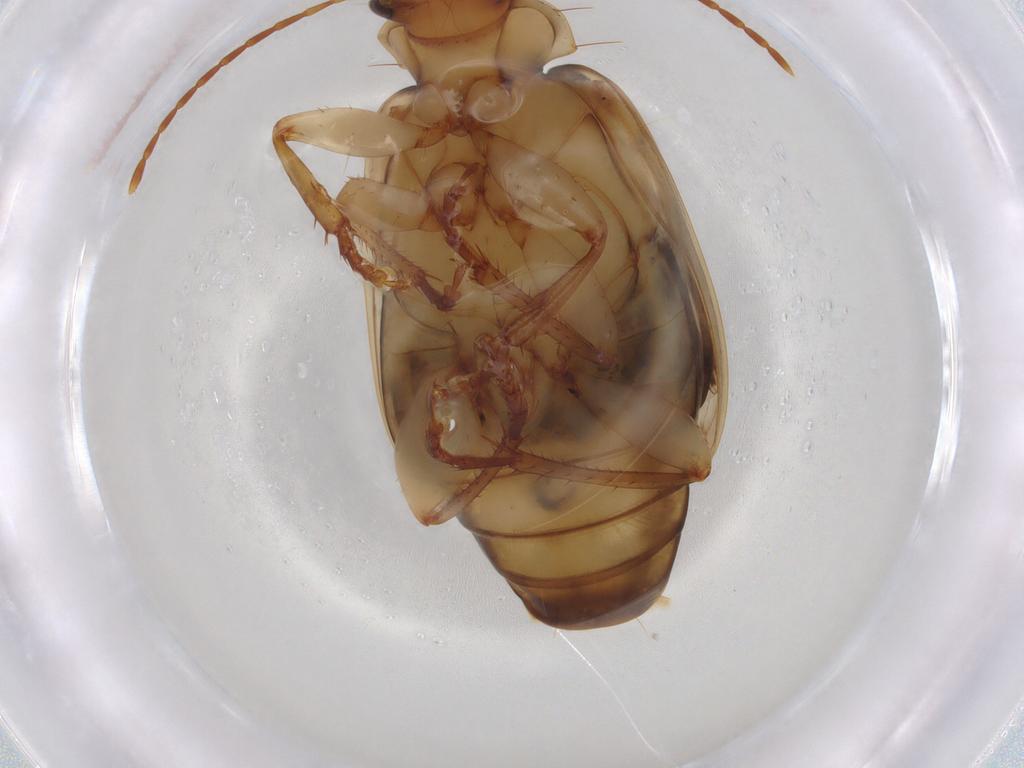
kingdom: Animalia
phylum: Arthropoda
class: Insecta
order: Coleoptera
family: Carabidae
